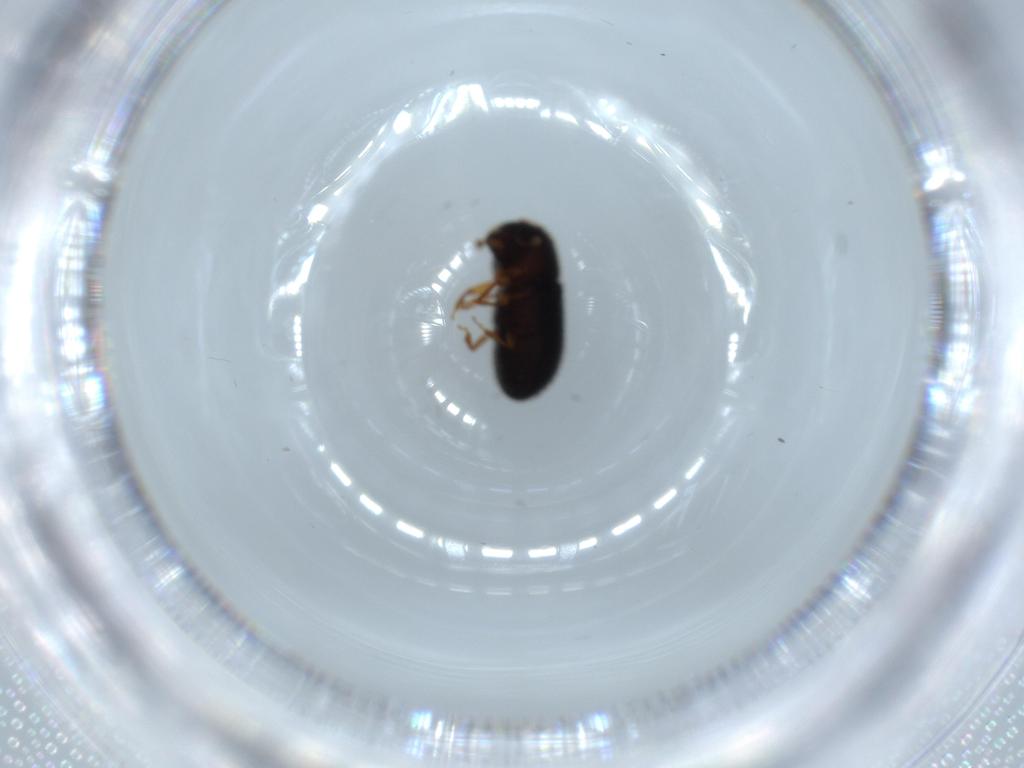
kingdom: Animalia
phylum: Arthropoda
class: Insecta
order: Coleoptera
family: Curculionidae
